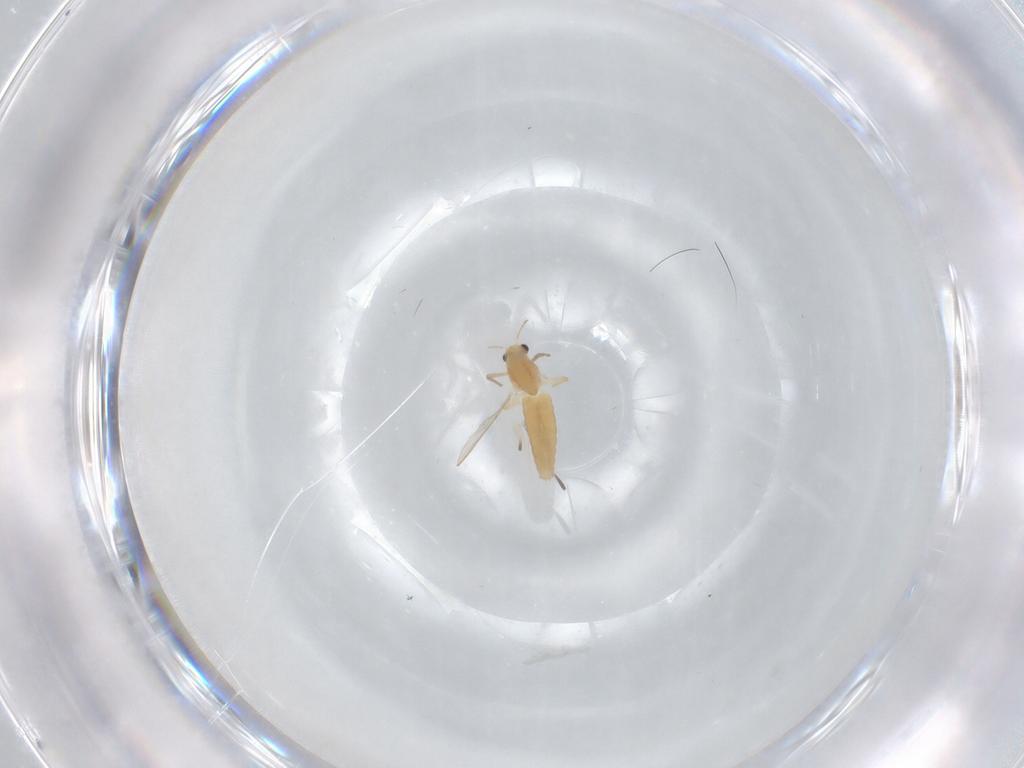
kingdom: Animalia
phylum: Arthropoda
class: Insecta
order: Diptera
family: Chironomidae
